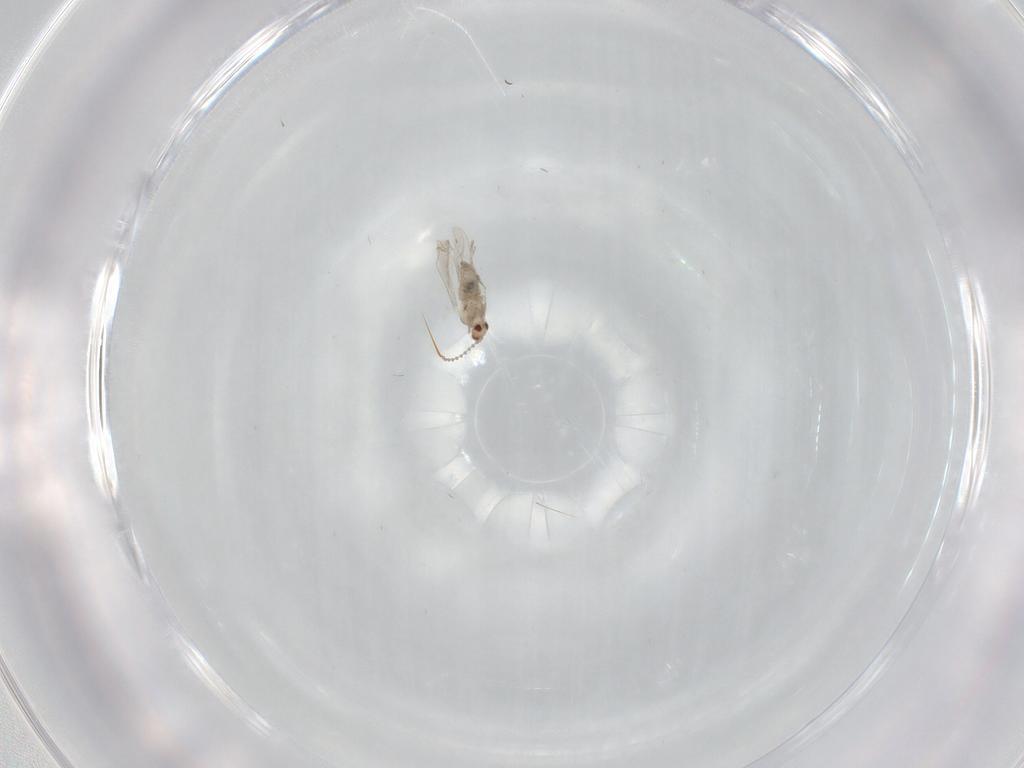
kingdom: Animalia
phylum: Arthropoda
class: Insecta
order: Diptera
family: Cecidomyiidae
